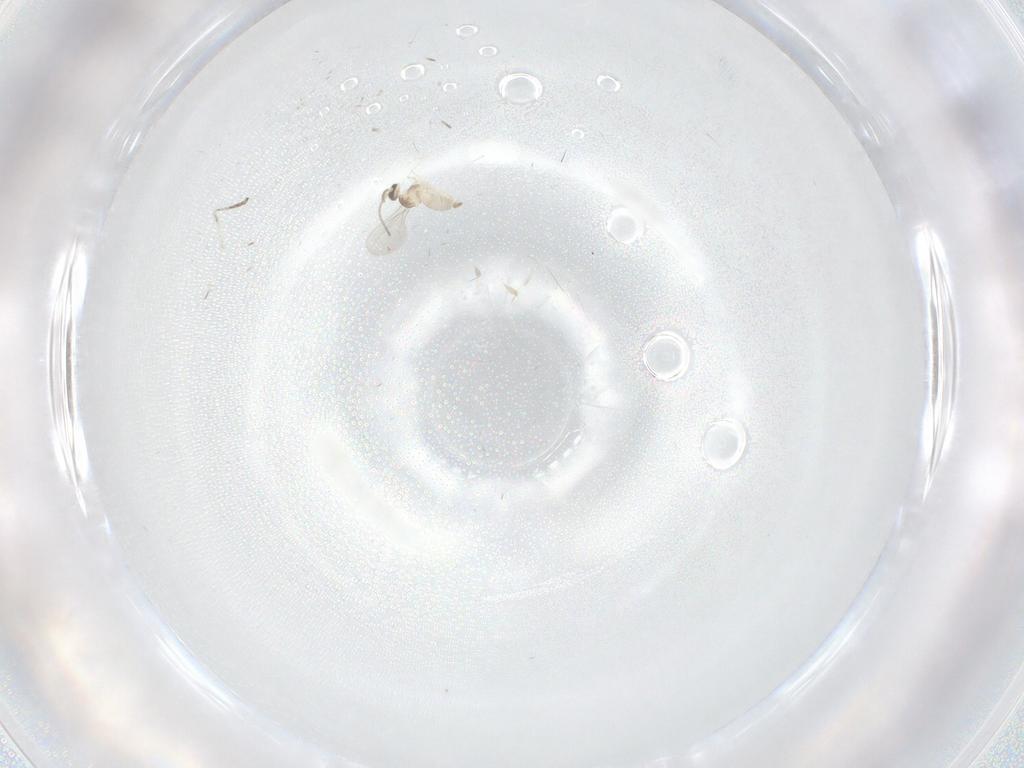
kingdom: Animalia
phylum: Arthropoda
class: Insecta
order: Diptera
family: Cecidomyiidae
